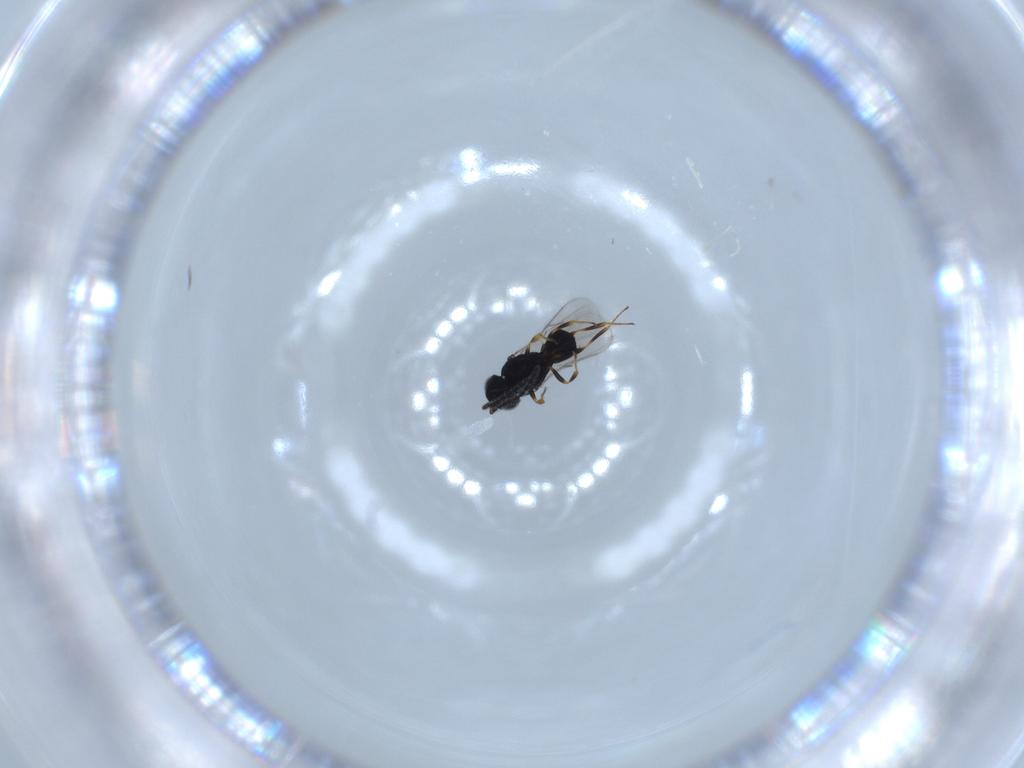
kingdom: Animalia
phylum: Arthropoda
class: Insecta
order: Hymenoptera
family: Scelionidae
